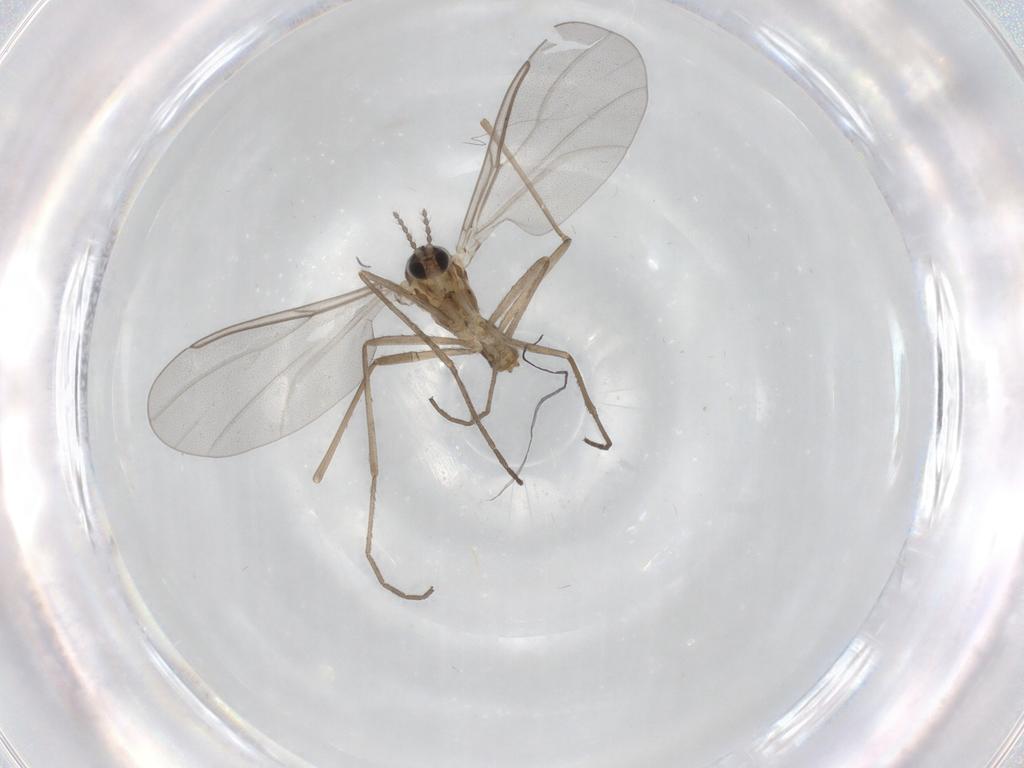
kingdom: Animalia
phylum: Arthropoda
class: Insecta
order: Diptera
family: Cecidomyiidae
